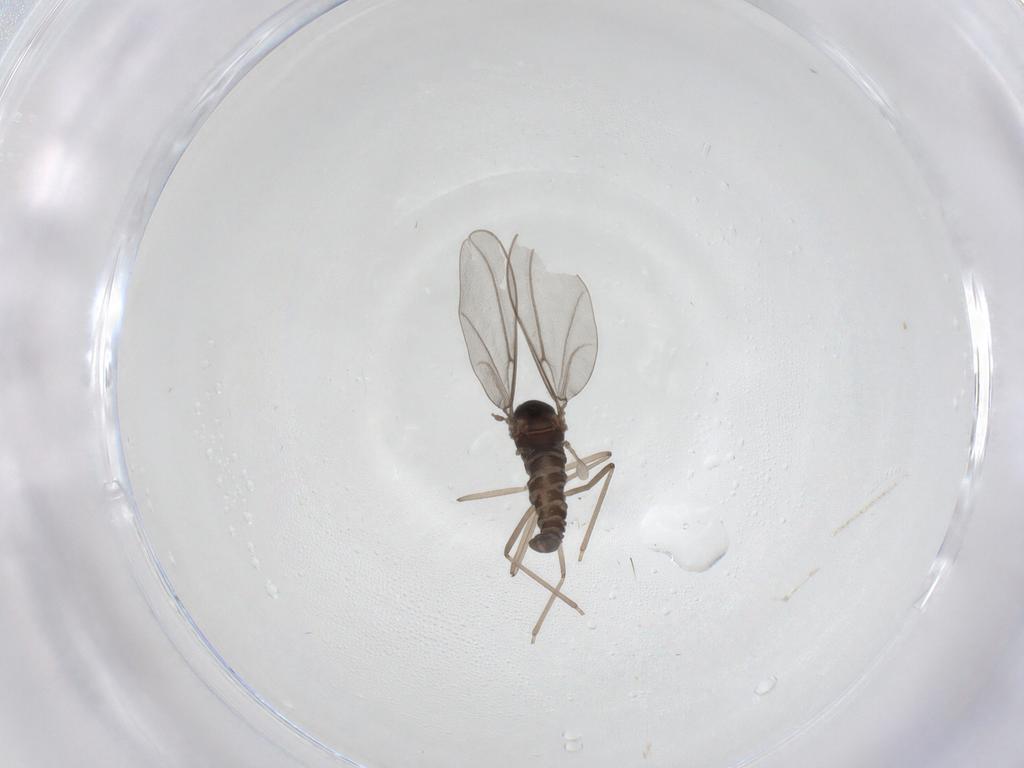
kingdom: Animalia
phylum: Arthropoda
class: Insecta
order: Diptera
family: Cecidomyiidae
